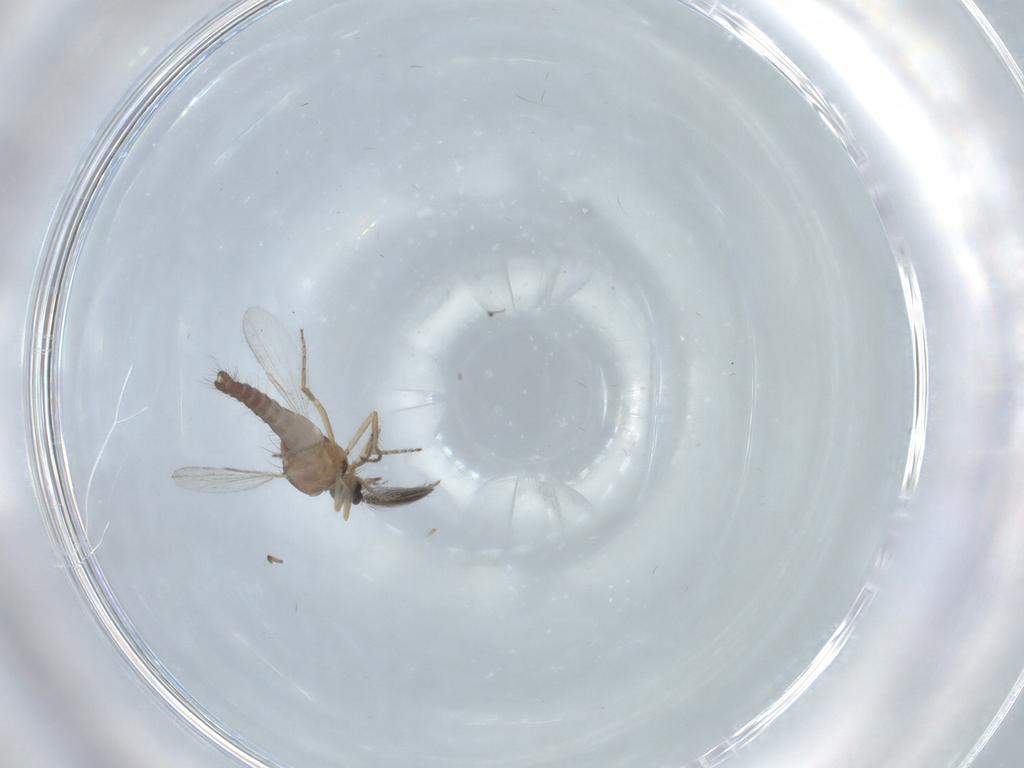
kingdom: Animalia
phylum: Arthropoda
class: Insecta
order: Diptera
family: Ceratopogonidae
